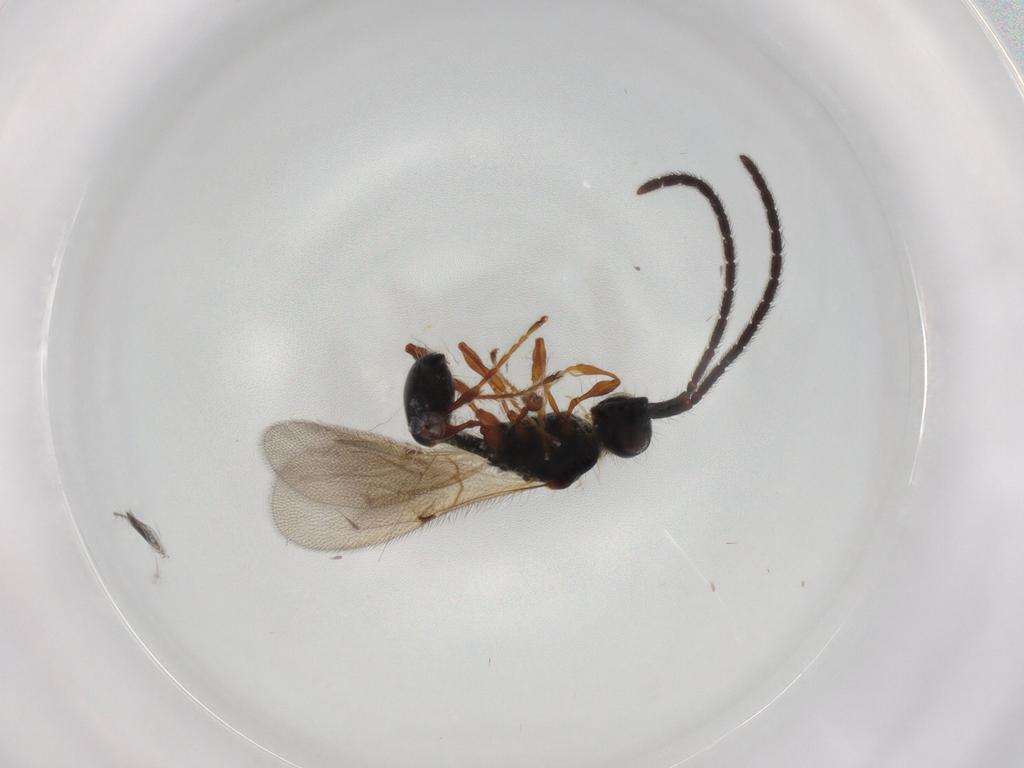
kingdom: Animalia
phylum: Arthropoda
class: Insecta
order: Hymenoptera
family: Diapriidae
